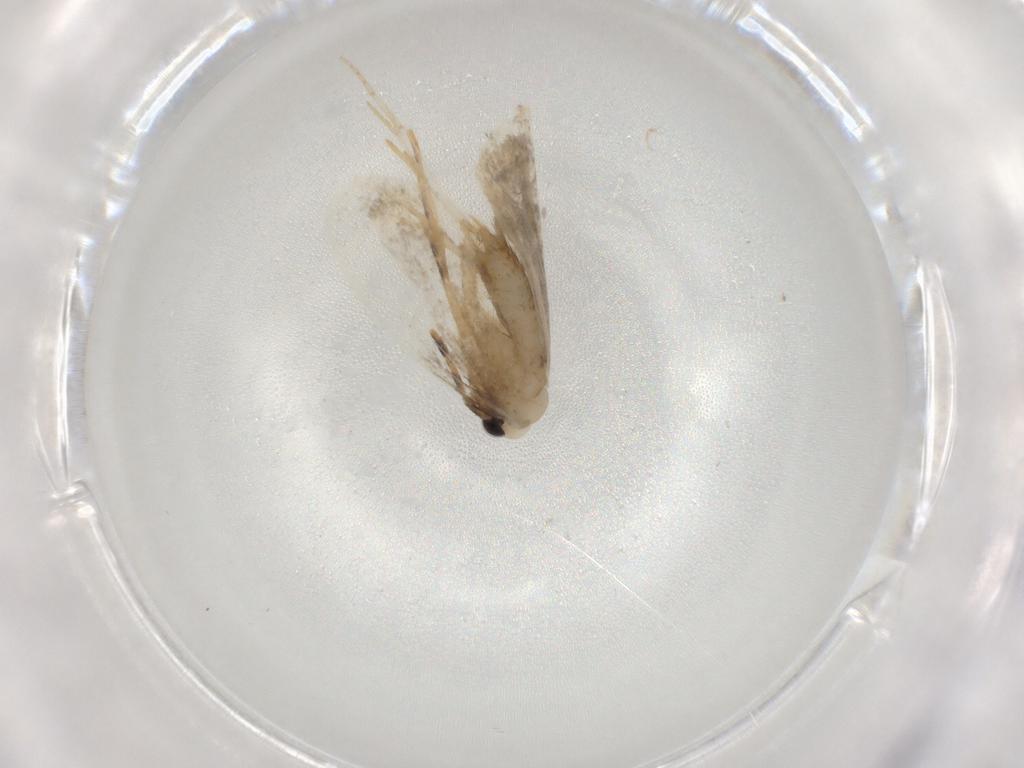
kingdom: Animalia
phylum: Arthropoda
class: Insecta
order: Lepidoptera
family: Psychidae
